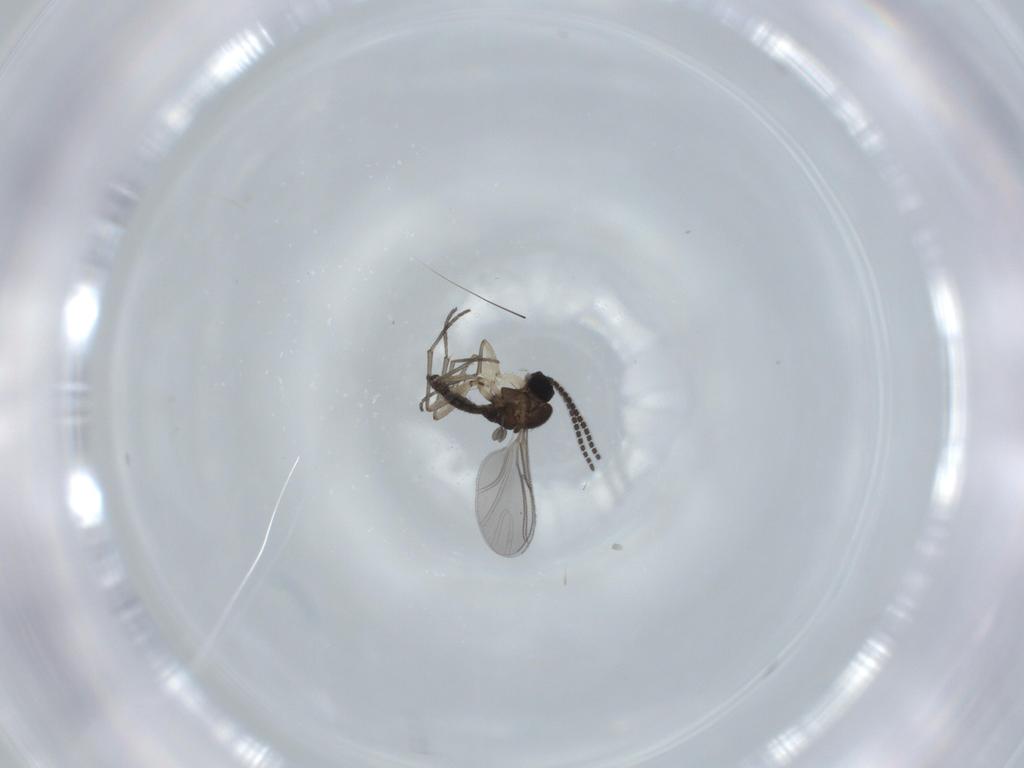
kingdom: Animalia
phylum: Arthropoda
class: Insecta
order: Diptera
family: Sciaridae
